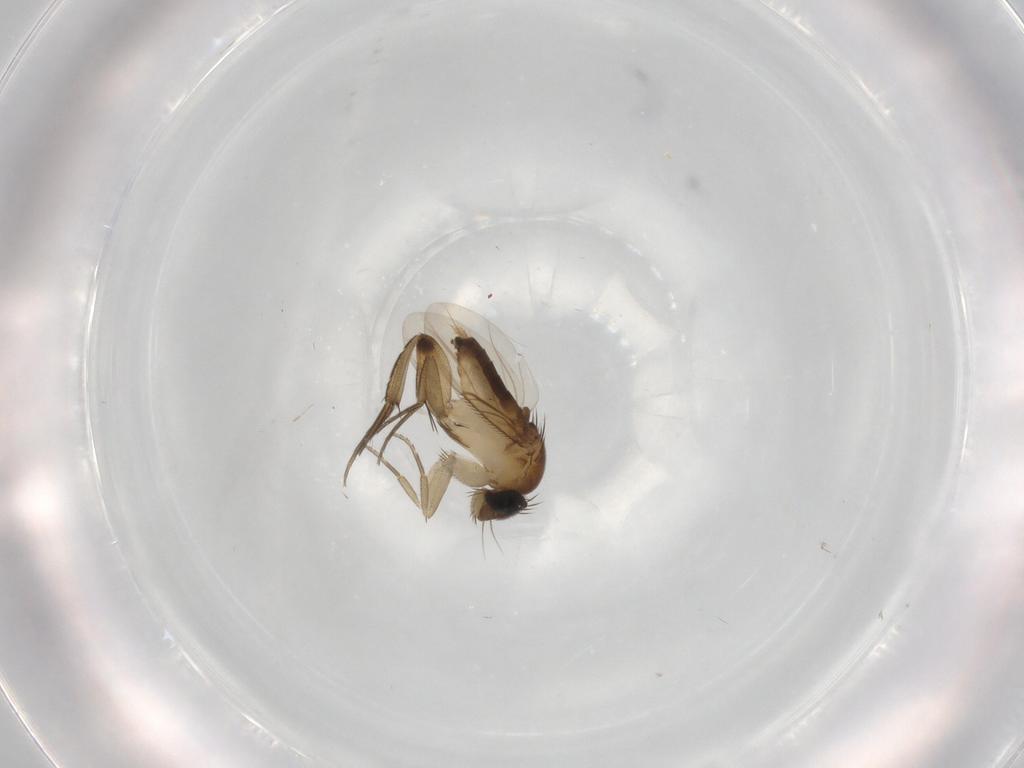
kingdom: Animalia
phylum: Arthropoda
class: Insecta
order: Diptera
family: Phoridae
